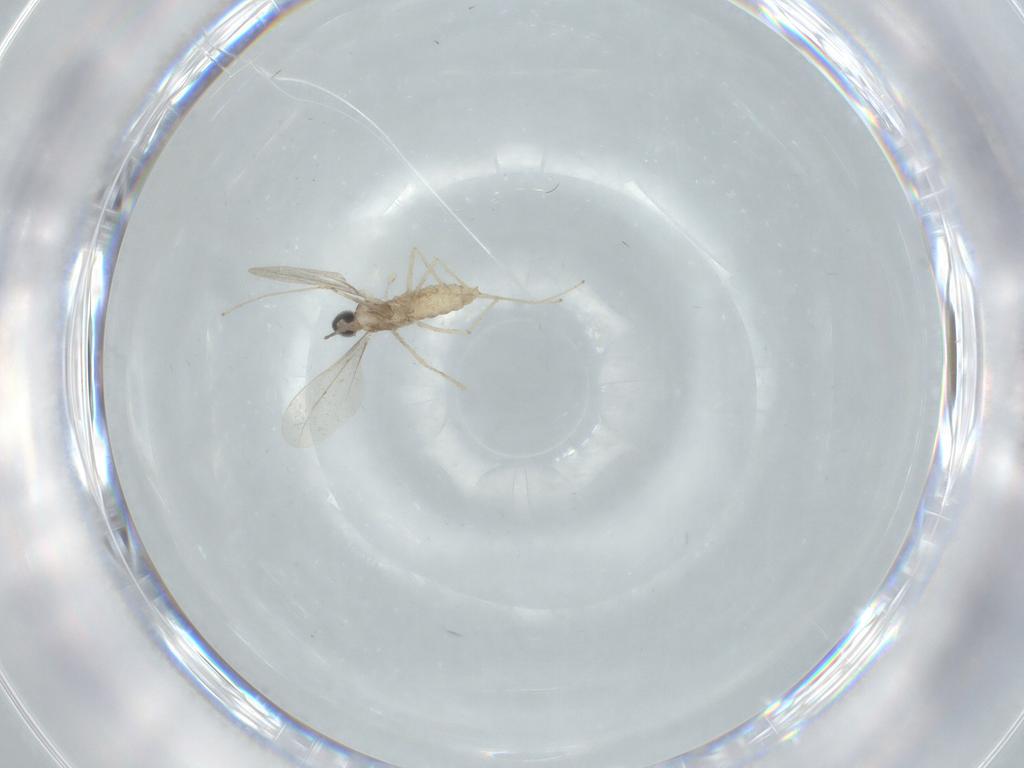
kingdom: Animalia
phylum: Arthropoda
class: Insecta
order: Diptera
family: Cecidomyiidae
